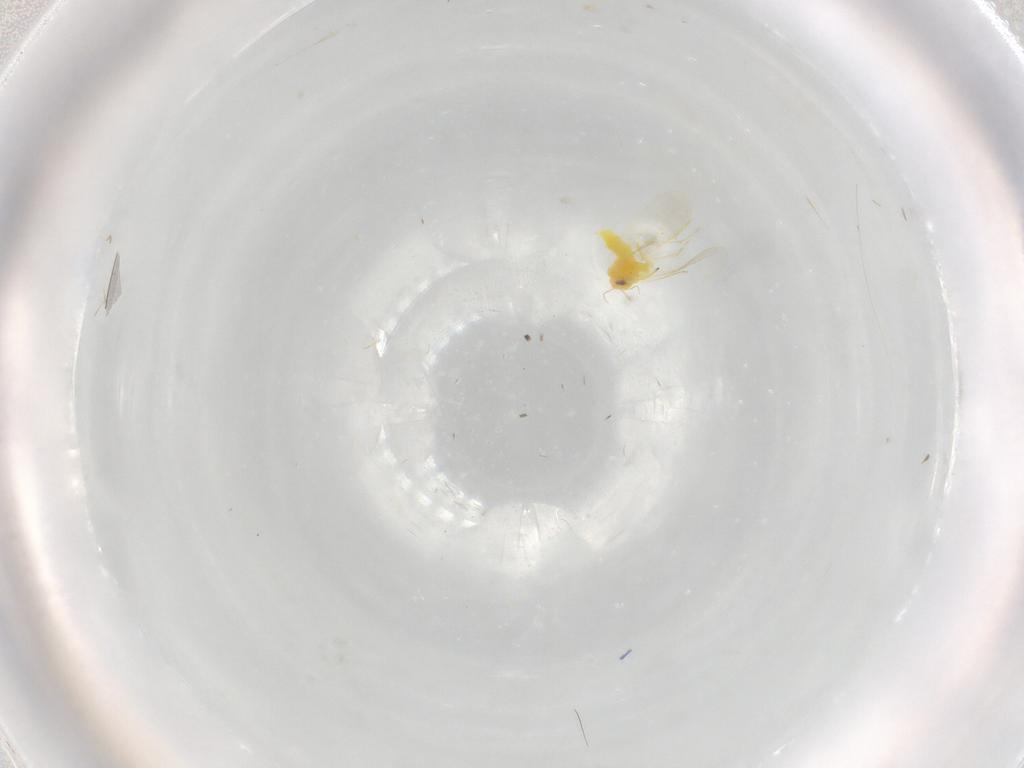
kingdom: Animalia
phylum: Arthropoda
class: Insecta
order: Hemiptera
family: Anthocoridae
